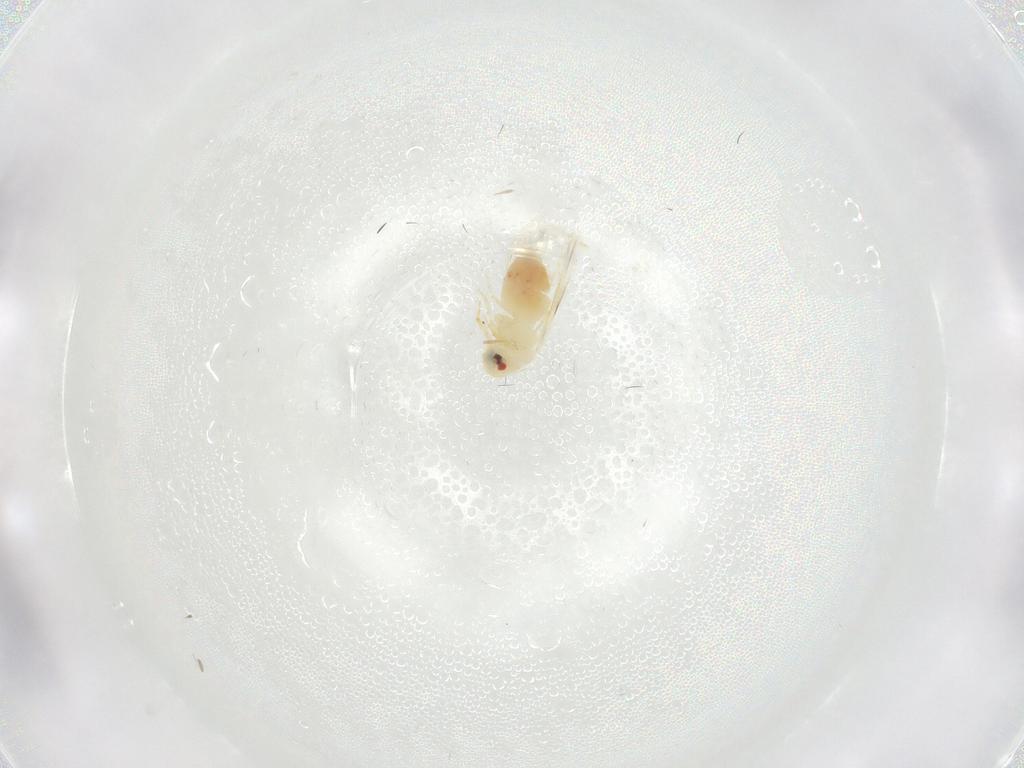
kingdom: Animalia
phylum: Arthropoda
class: Insecta
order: Hemiptera
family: Aleyrodidae
